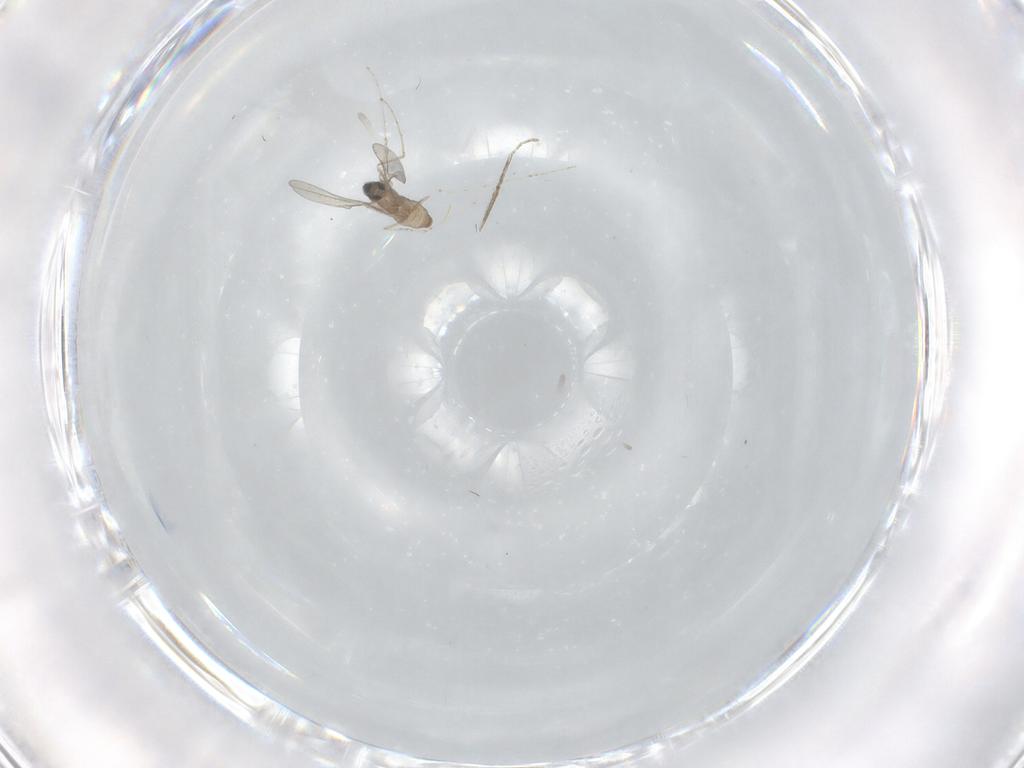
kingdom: Animalia
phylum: Arthropoda
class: Insecta
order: Diptera
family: Cecidomyiidae
